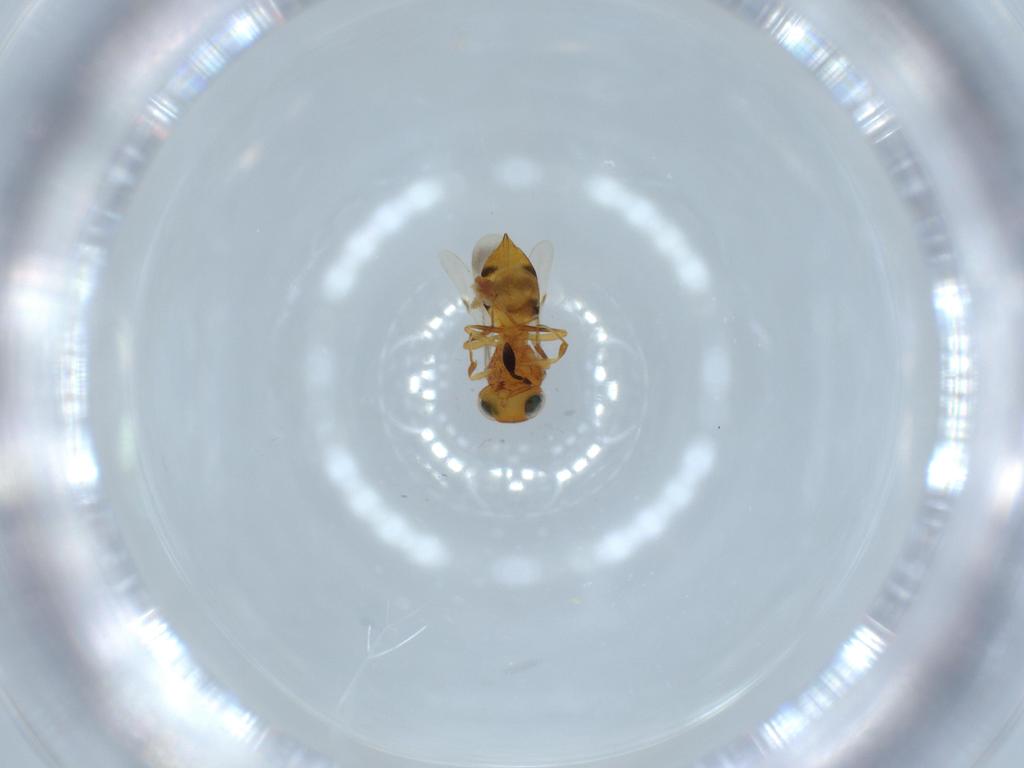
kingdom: Animalia
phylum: Arthropoda
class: Insecta
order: Hymenoptera
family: Scelionidae
